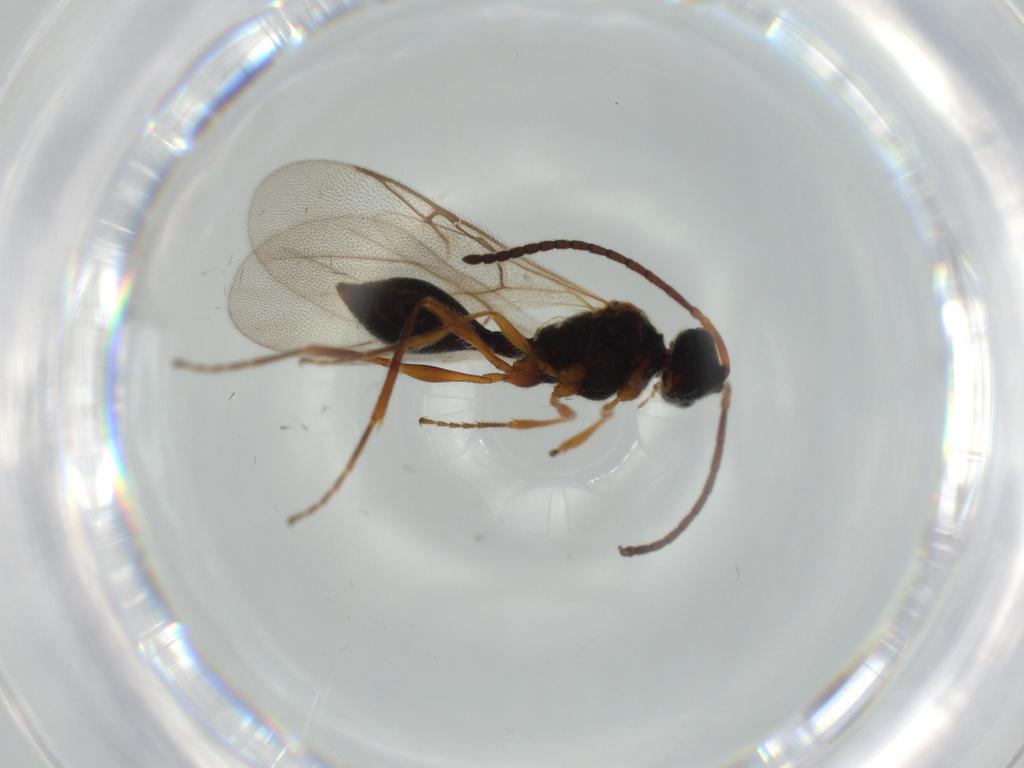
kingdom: Animalia
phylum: Arthropoda
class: Insecta
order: Hymenoptera
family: Diapriidae
